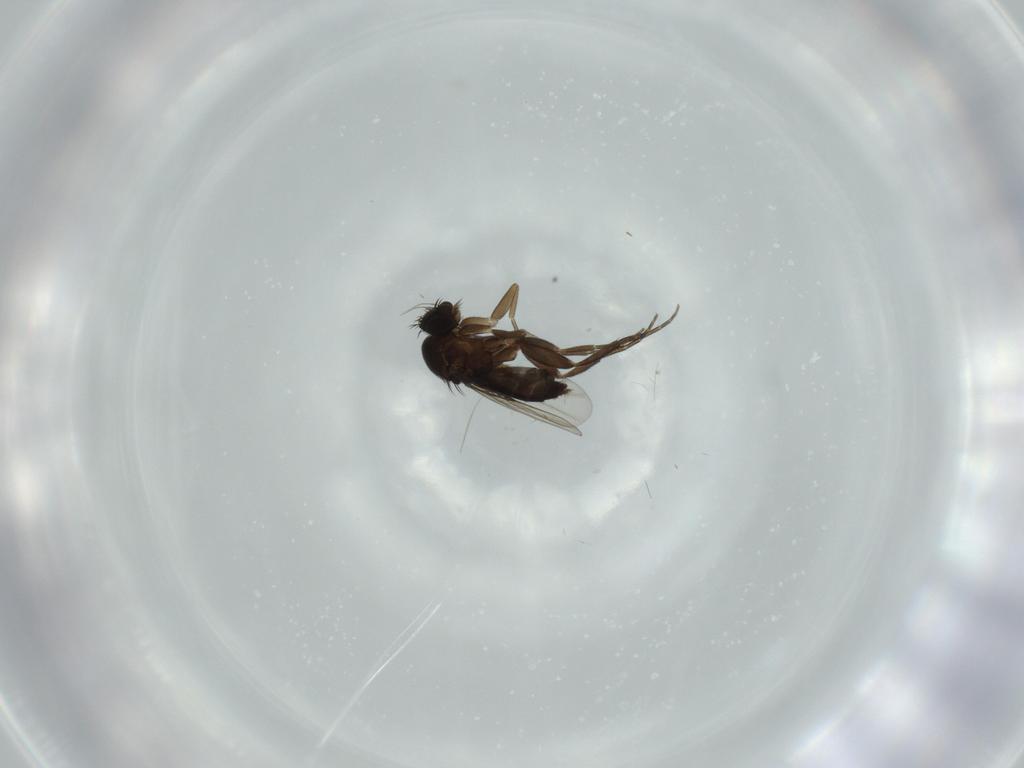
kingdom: Animalia
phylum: Arthropoda
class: Insecta
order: Diptera
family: Phoridae
